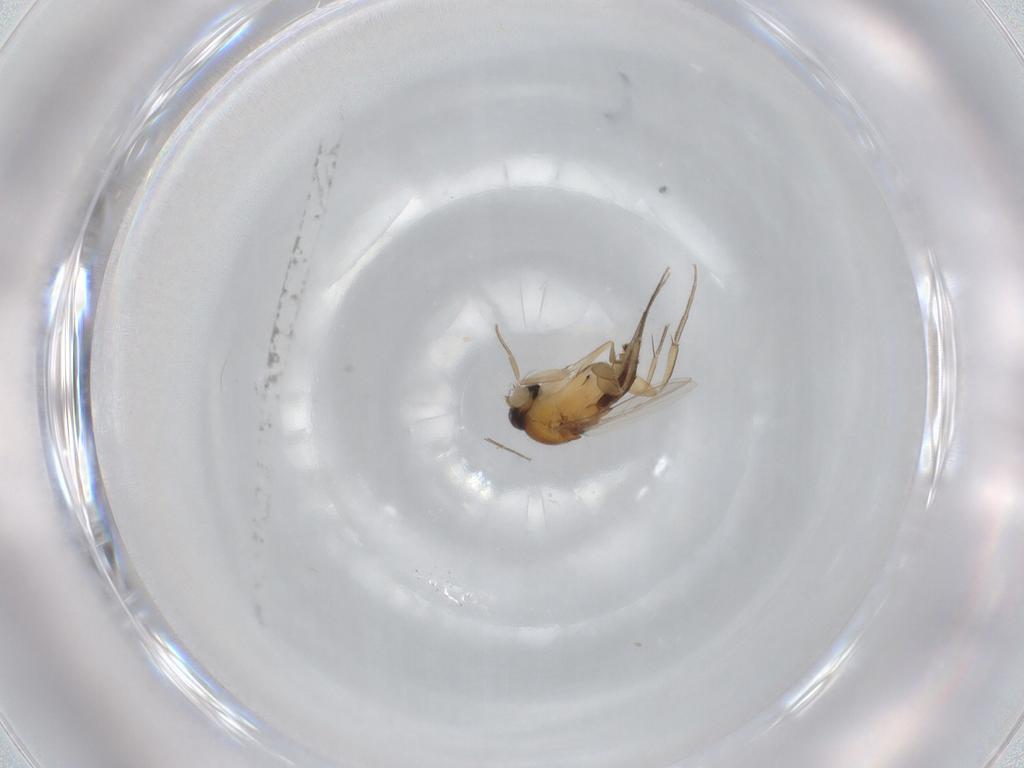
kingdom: Animalia
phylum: Arthropoda
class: Insecta
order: Diptera
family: Phoridae
